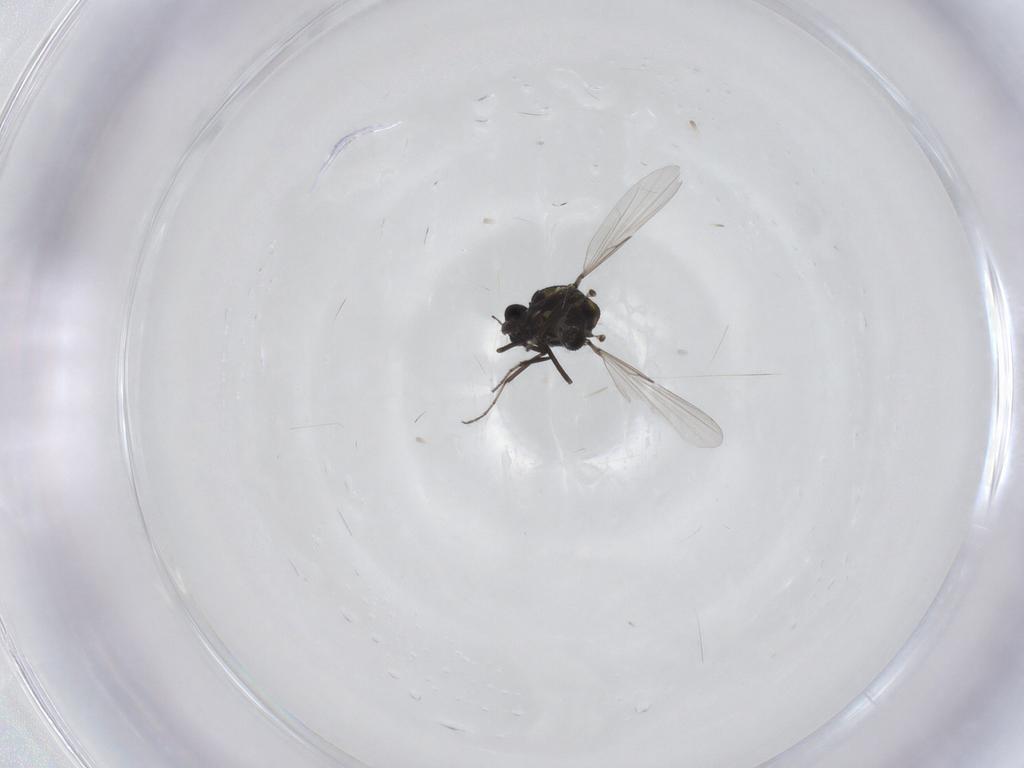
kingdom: Animalia
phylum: Arthropoda
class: Insecta
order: Diptera
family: Ceratopogonidae
